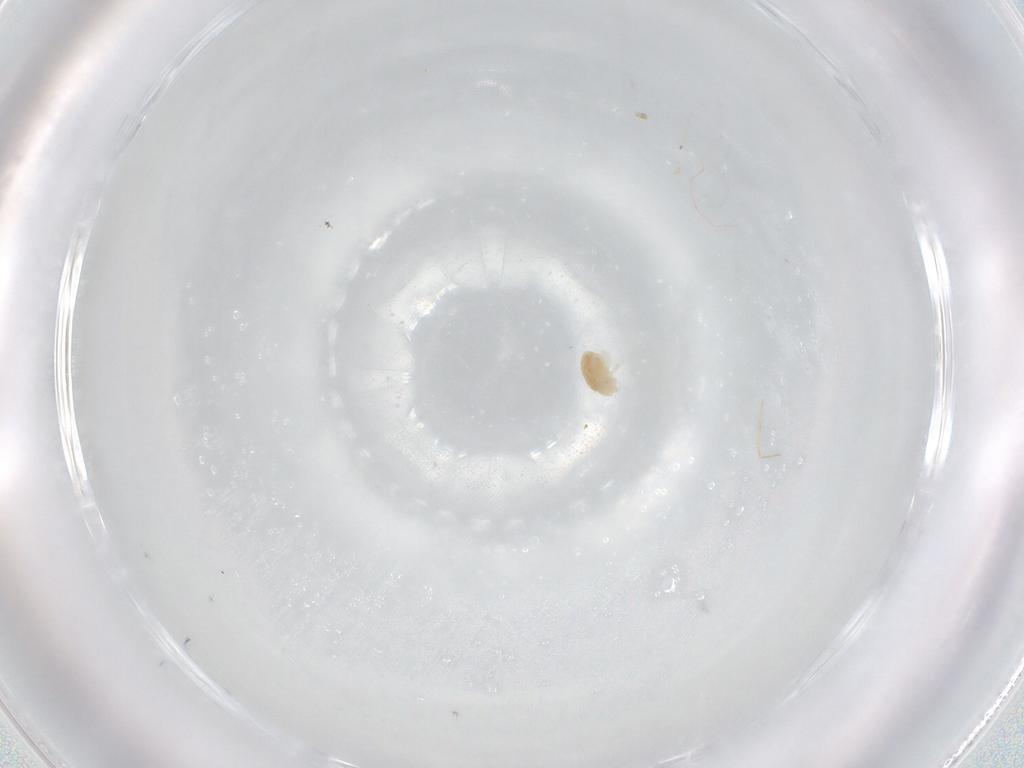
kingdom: Animalia
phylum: Arthropoda
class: Arachnida
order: Trombidiformes
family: Eupodidae
